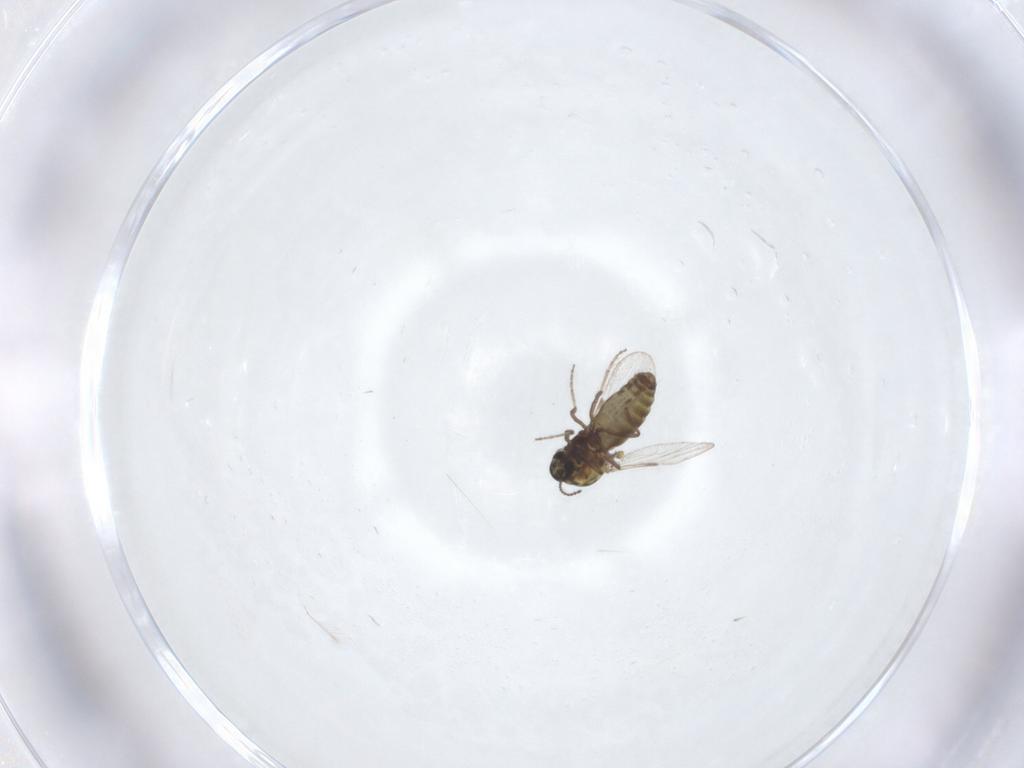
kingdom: Animalia
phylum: Arthropoda
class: Insecta
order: Diptera
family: Ceratopogonidae
